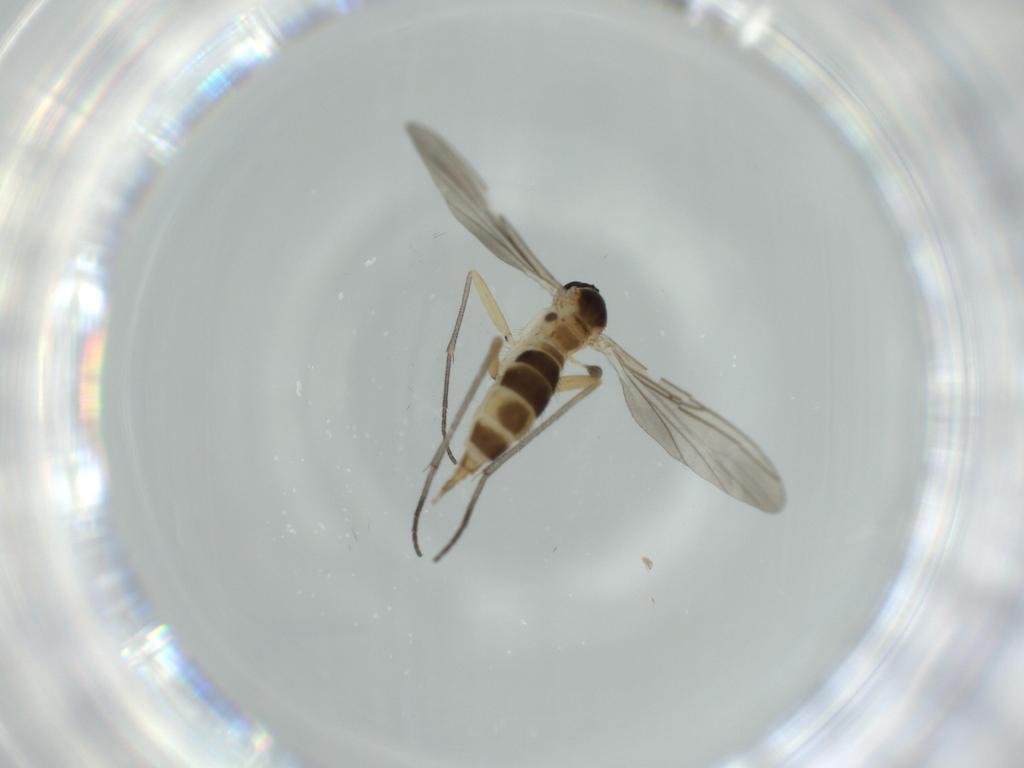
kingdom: Animalia
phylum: Arthropoda
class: Insecta
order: Diptera
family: Sciaridae
